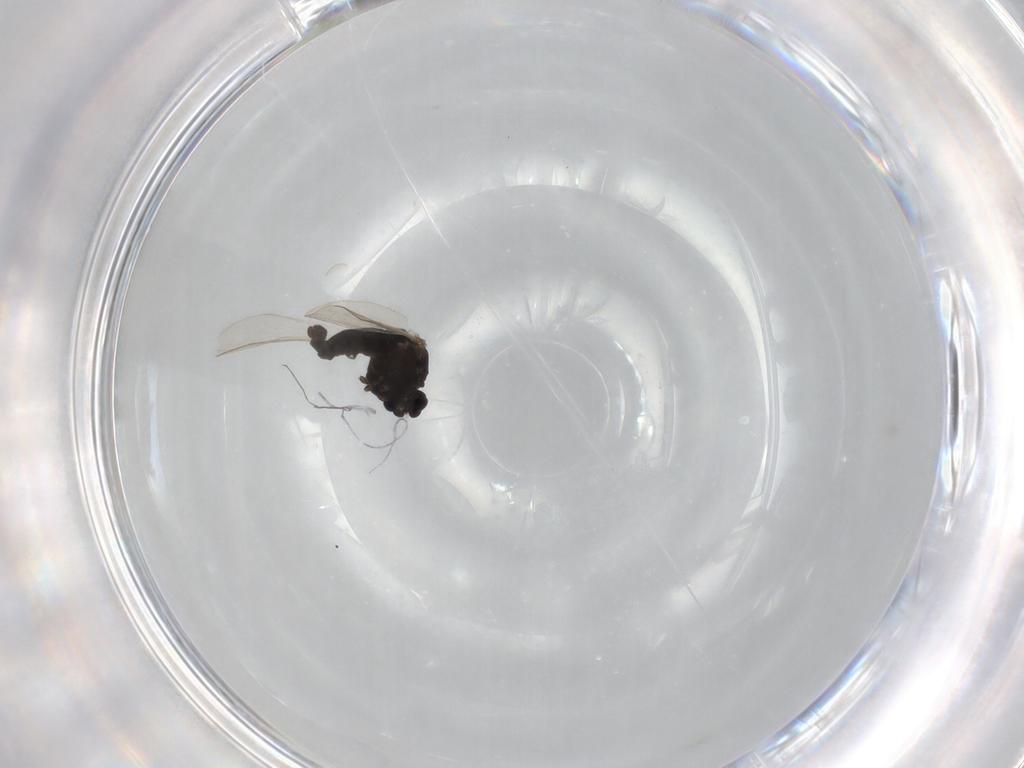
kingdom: Animalia
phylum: Arthropoda
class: Insecta
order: Diptera
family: Chironomidae
